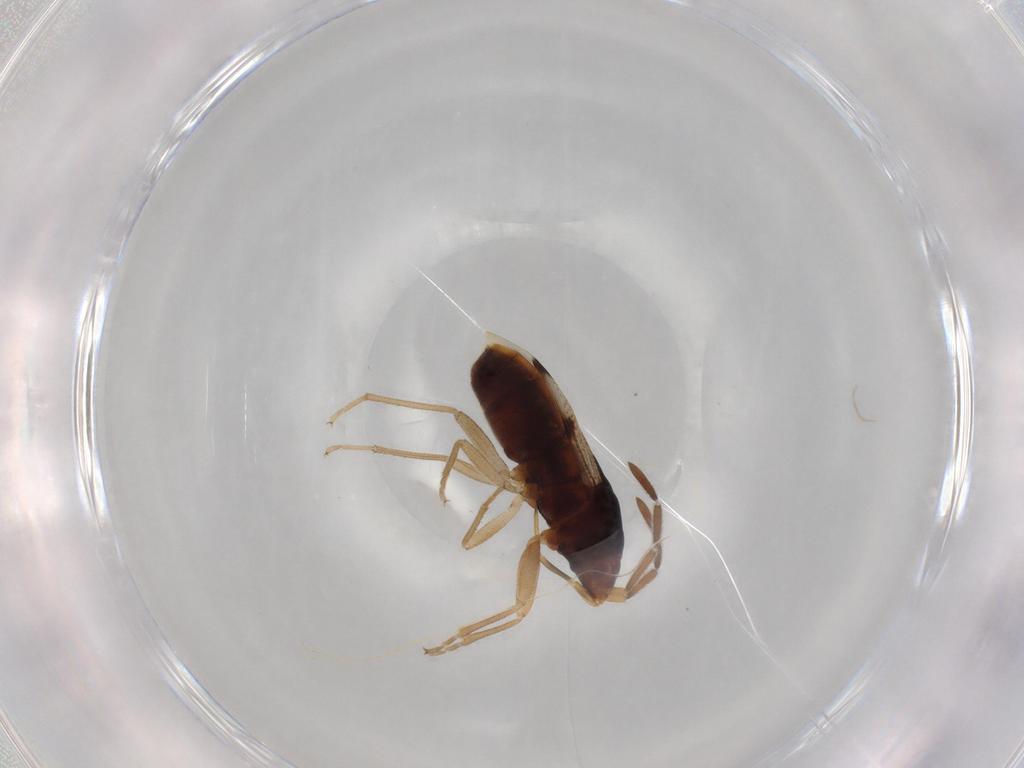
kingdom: Animalia
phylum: Arthropoda
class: Insecta
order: Hemiptera
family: Rhyparochromidae
